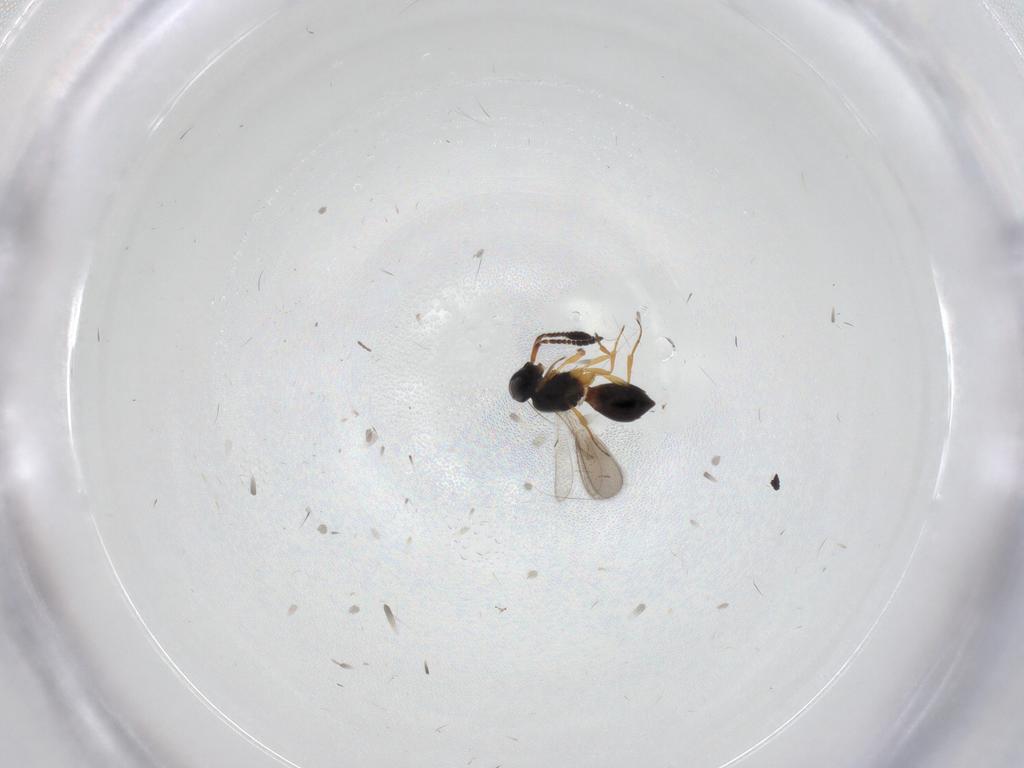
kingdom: Animalia
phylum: Arthropoda
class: Insecta
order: Hymenoptera
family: Scelionidae
